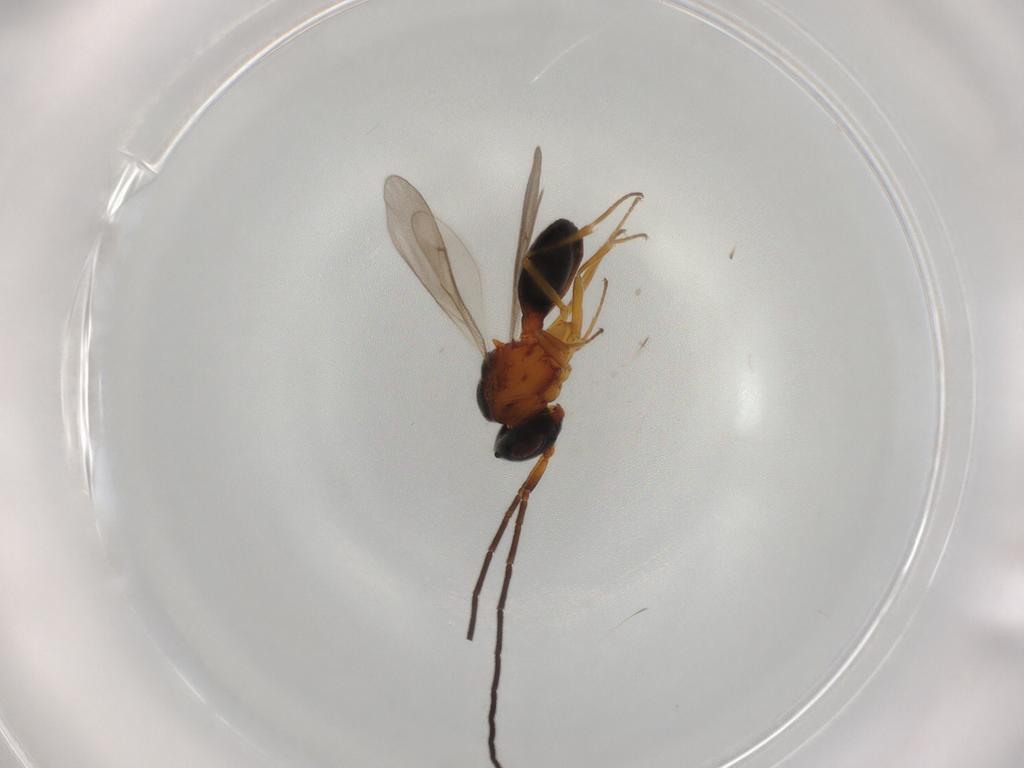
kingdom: Animalia
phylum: Arthropoda
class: Insecta
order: Hymenoptera
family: Scelionidae
